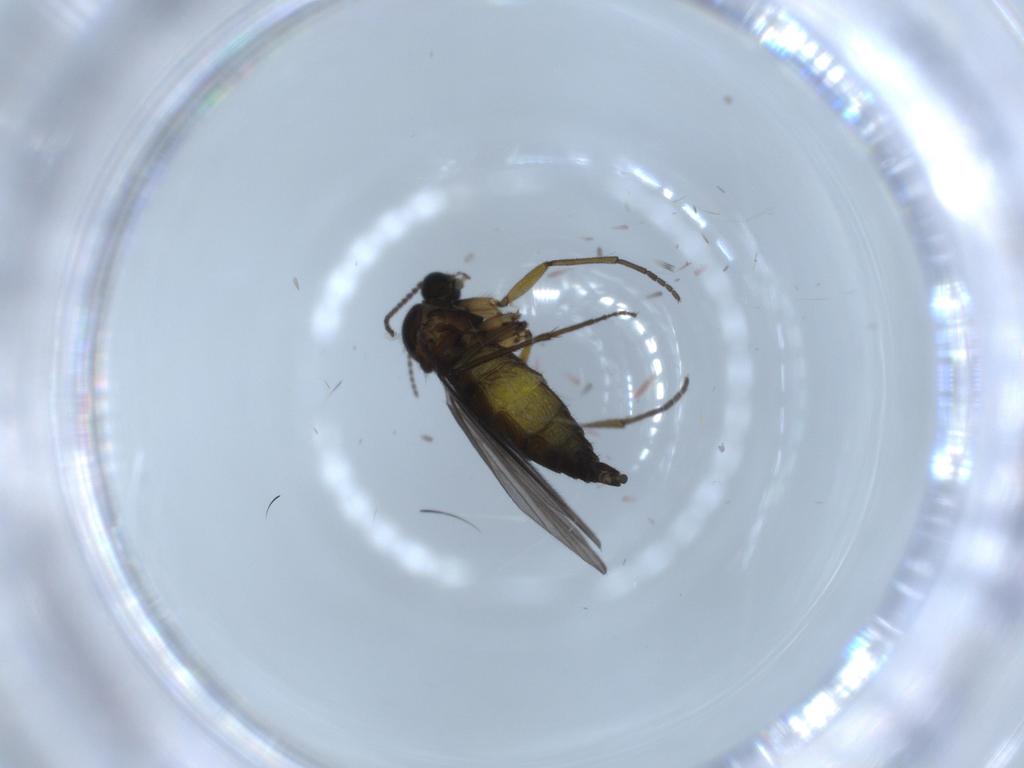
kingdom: Animalia
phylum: Arthropoda
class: Insecta
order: Diptera
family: Sciaridae
